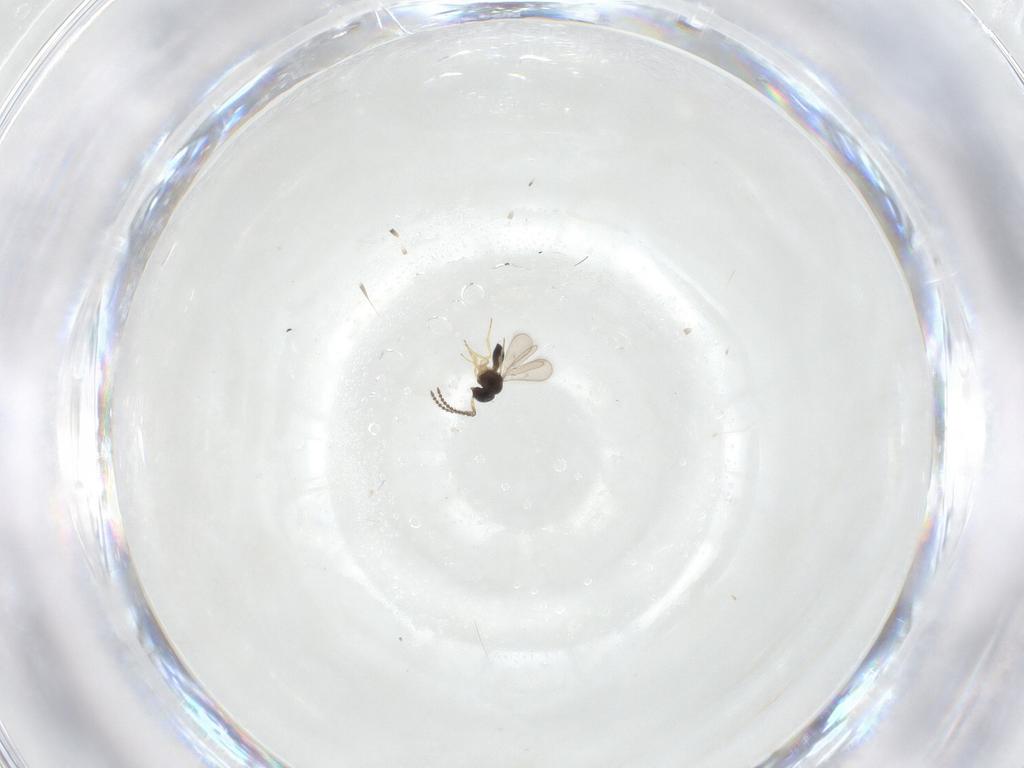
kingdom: Animalia
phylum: Arthropoda
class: Insecta
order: Hymenoptera
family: Scelionidae
